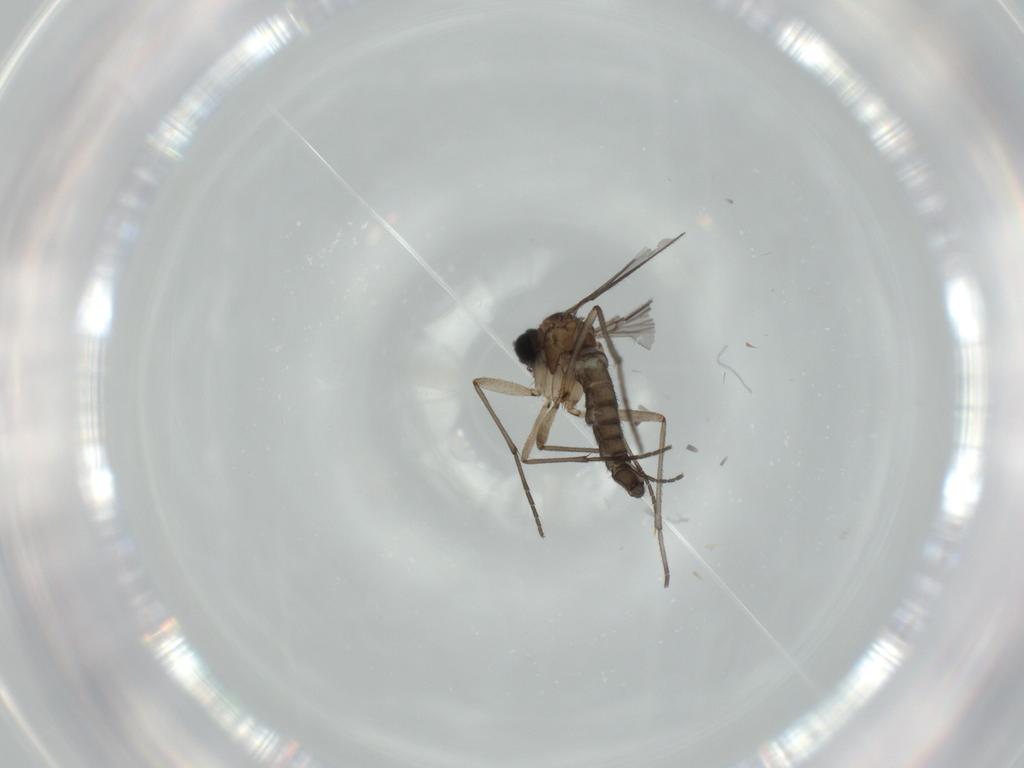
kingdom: Animalia
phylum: Arthropoda
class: Insecta
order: Diptera
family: Sciaridae
